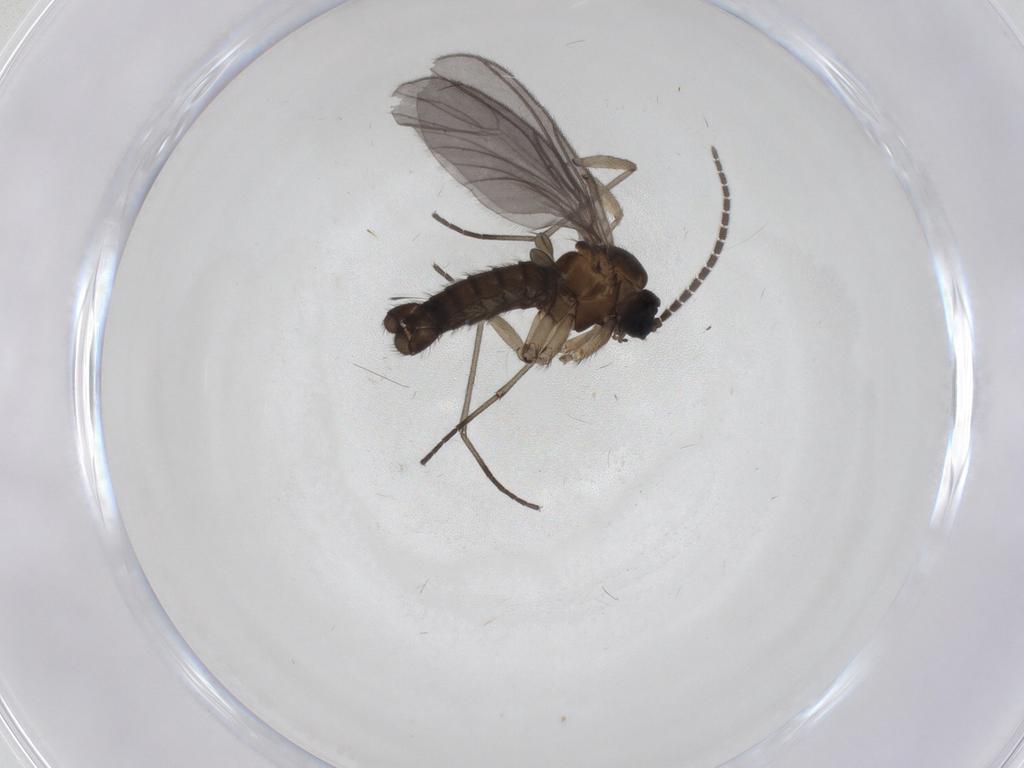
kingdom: Animalia
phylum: Arthropoda
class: Insecta
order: Diptera
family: Sciaridae
